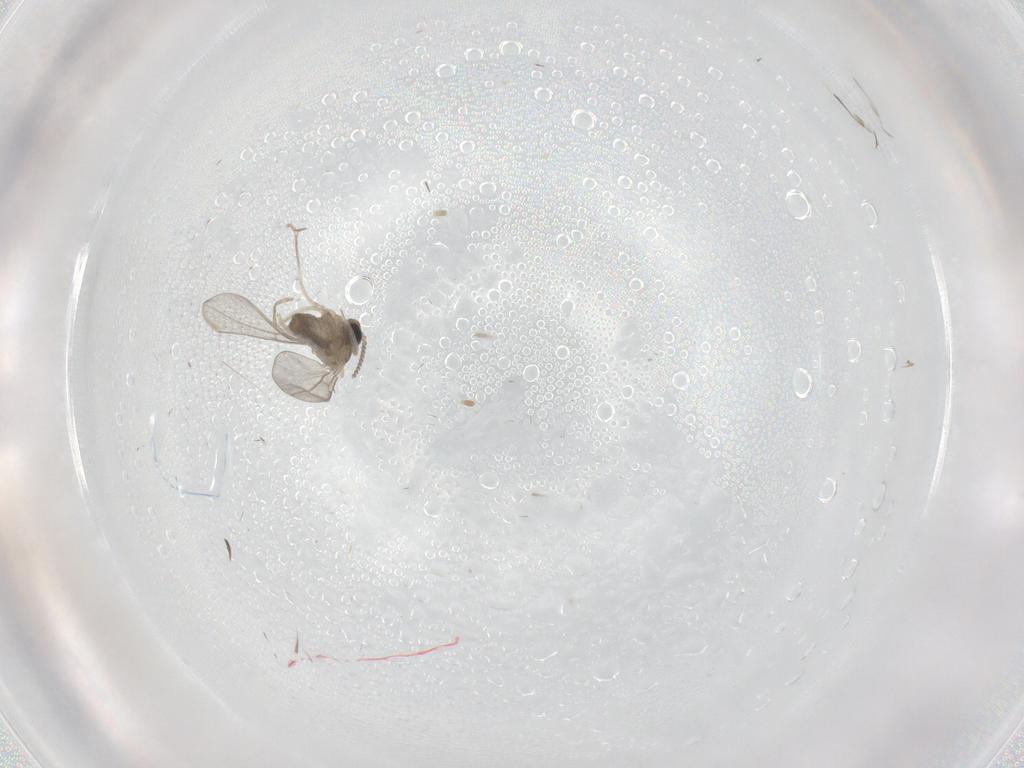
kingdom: Animalia
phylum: Arthropoda
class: Insecta
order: Diptera
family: Cecidomyiidae
